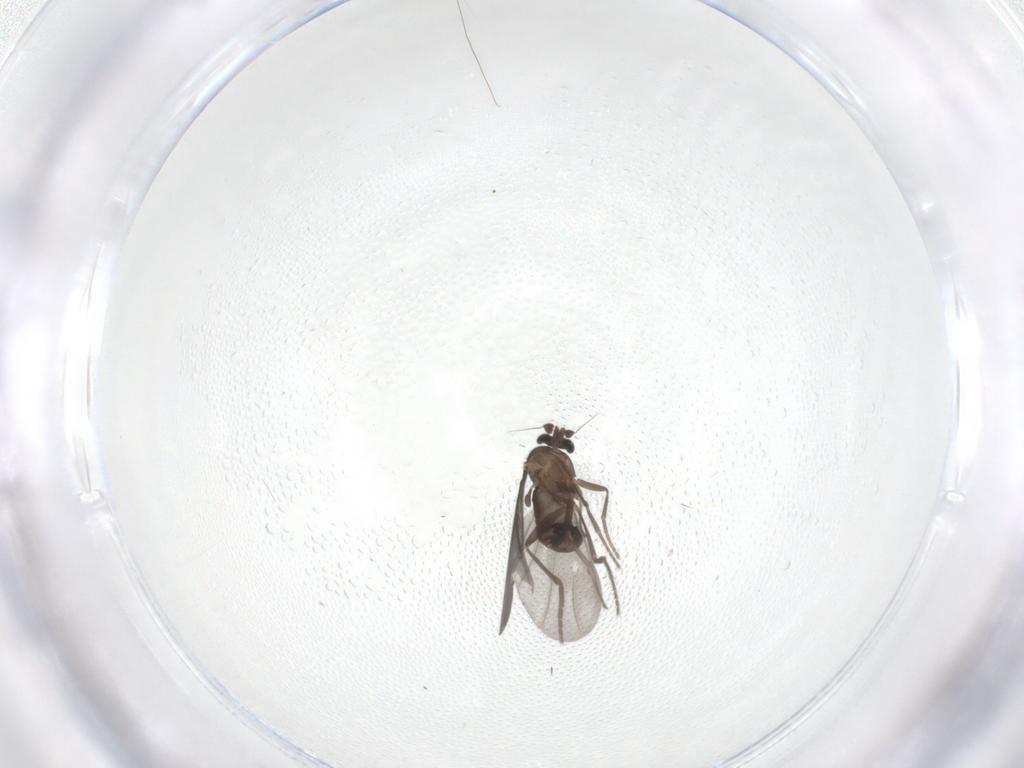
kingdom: Animalia
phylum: Arthropoda
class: Insecta
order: Diptera
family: Phoridae
